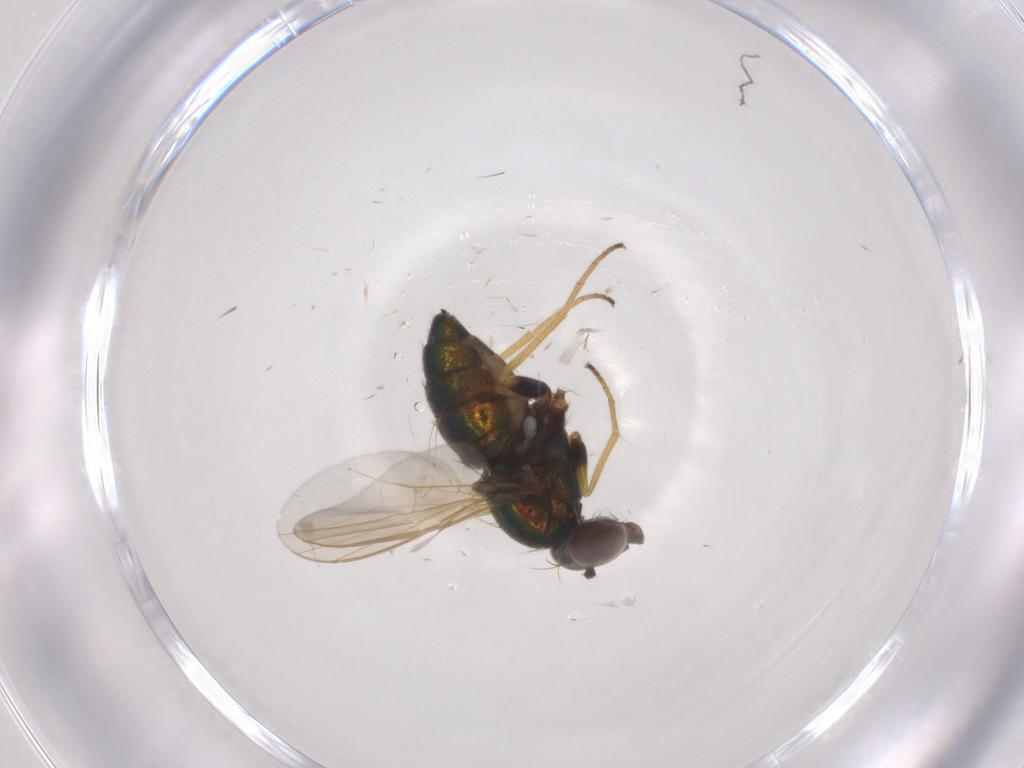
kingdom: Animalia
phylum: Arthropoda
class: Insecta
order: Diptera
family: Dolichopodidae
